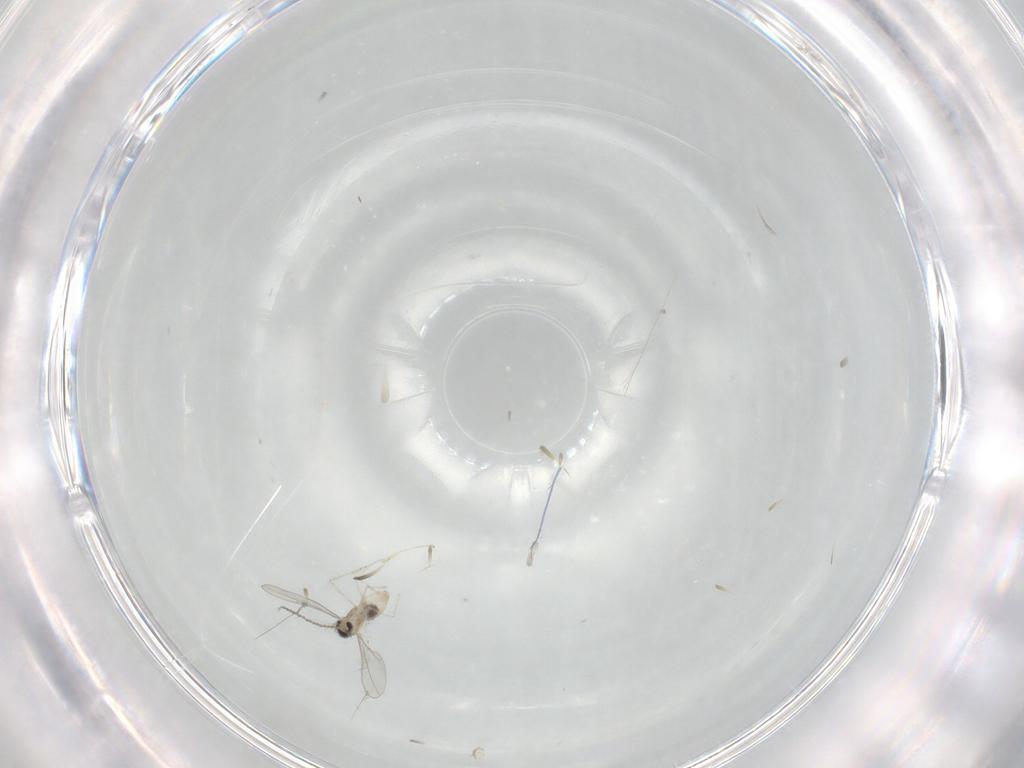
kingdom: Animalia
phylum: Arthropoda
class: Insecta
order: Diptera
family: Cecidomyiidae
